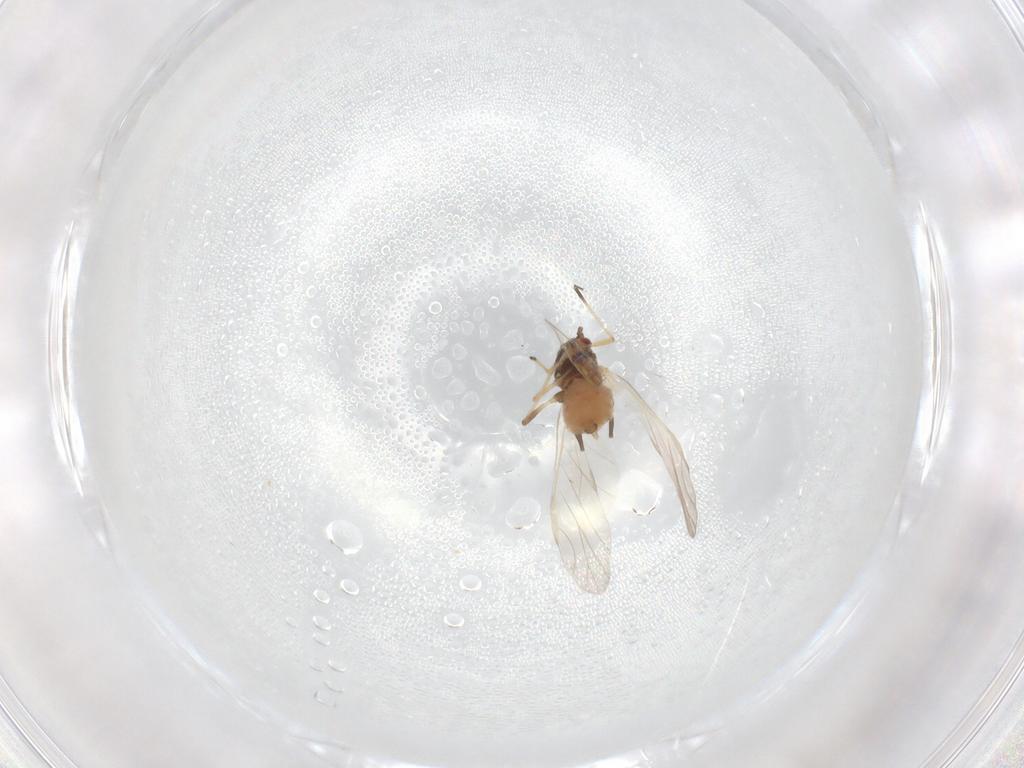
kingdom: Animalia
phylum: Arthropoda
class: Insecta
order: Hemiptera
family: Aphididae
